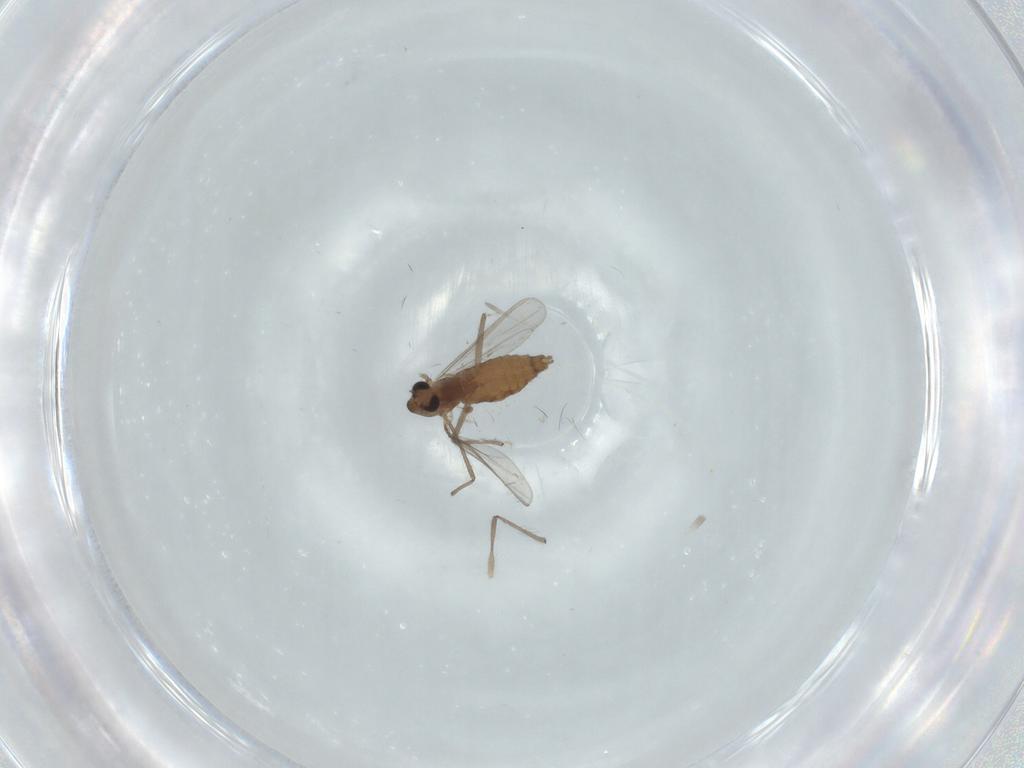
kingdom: Animalia
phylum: Arthropoda
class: Insecta
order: Diptera
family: Chironomidae
